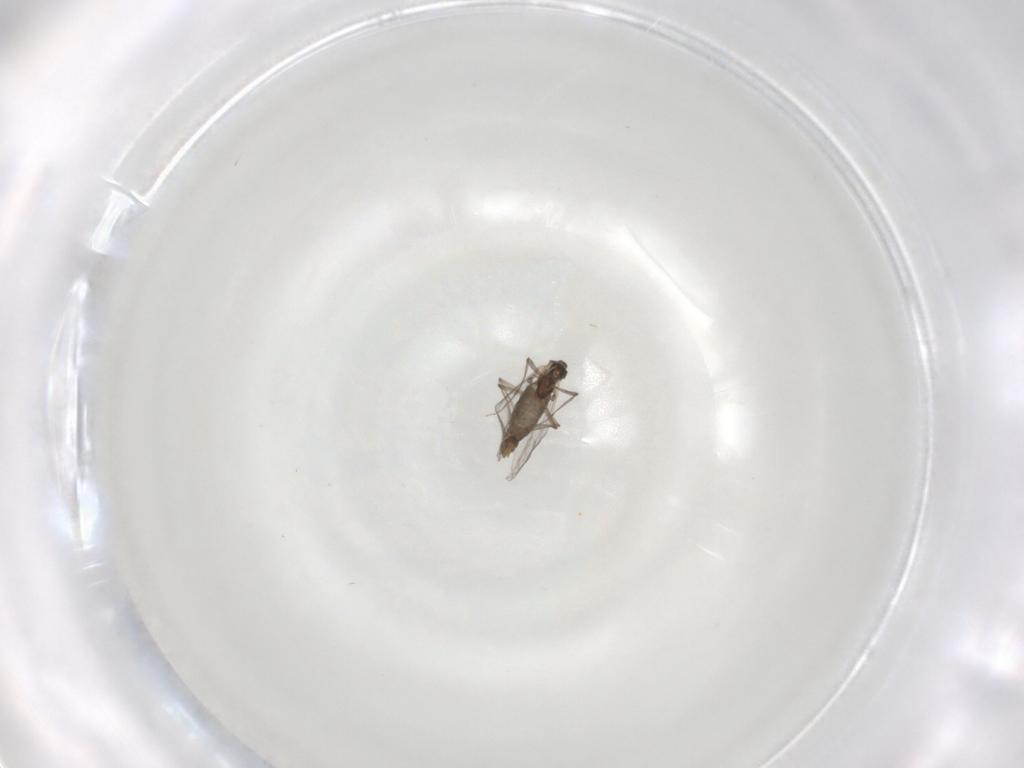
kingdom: Animalia
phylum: Arthropoda
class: Insecta
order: Diptera
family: Chironomidae
